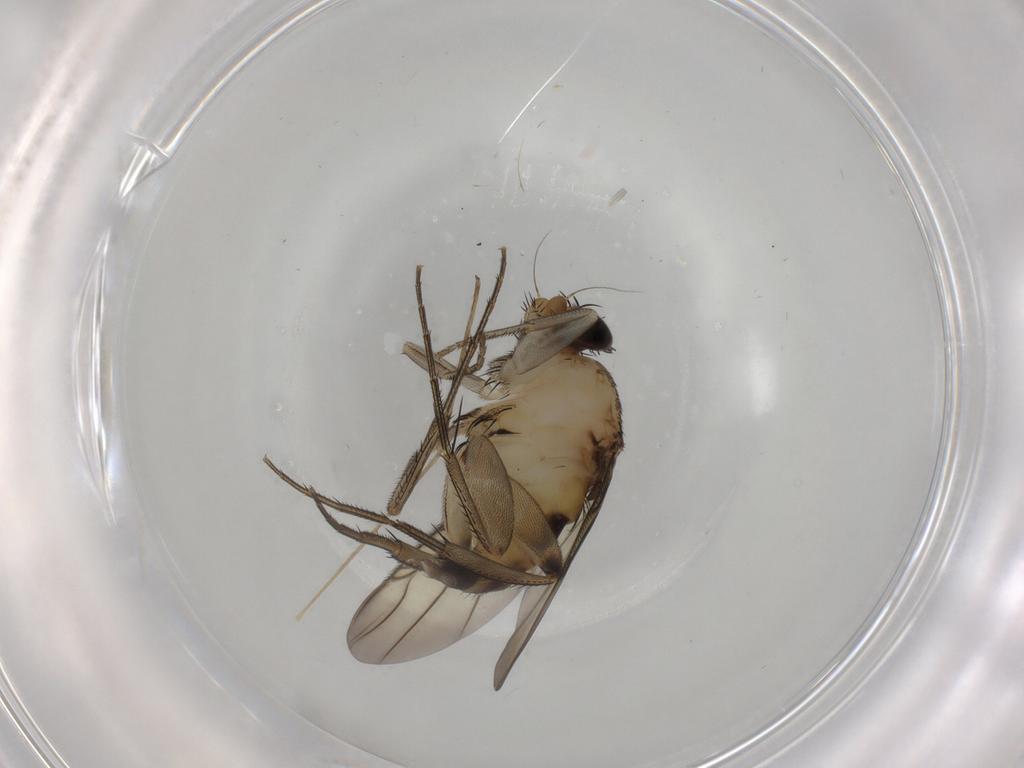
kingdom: Animalia
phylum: Arthropoda
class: Insecta
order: Diptera
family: Phoridae
